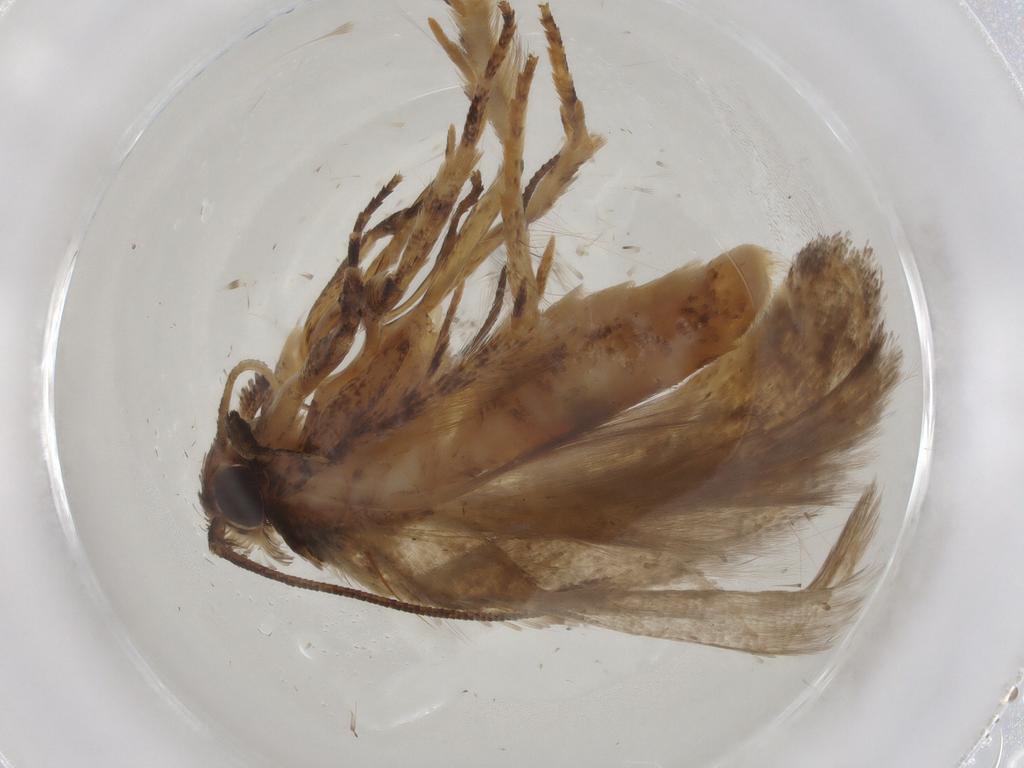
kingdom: Animalia
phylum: Arthropoda
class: Insecta
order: Lepidoptera
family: Gelechiidae
